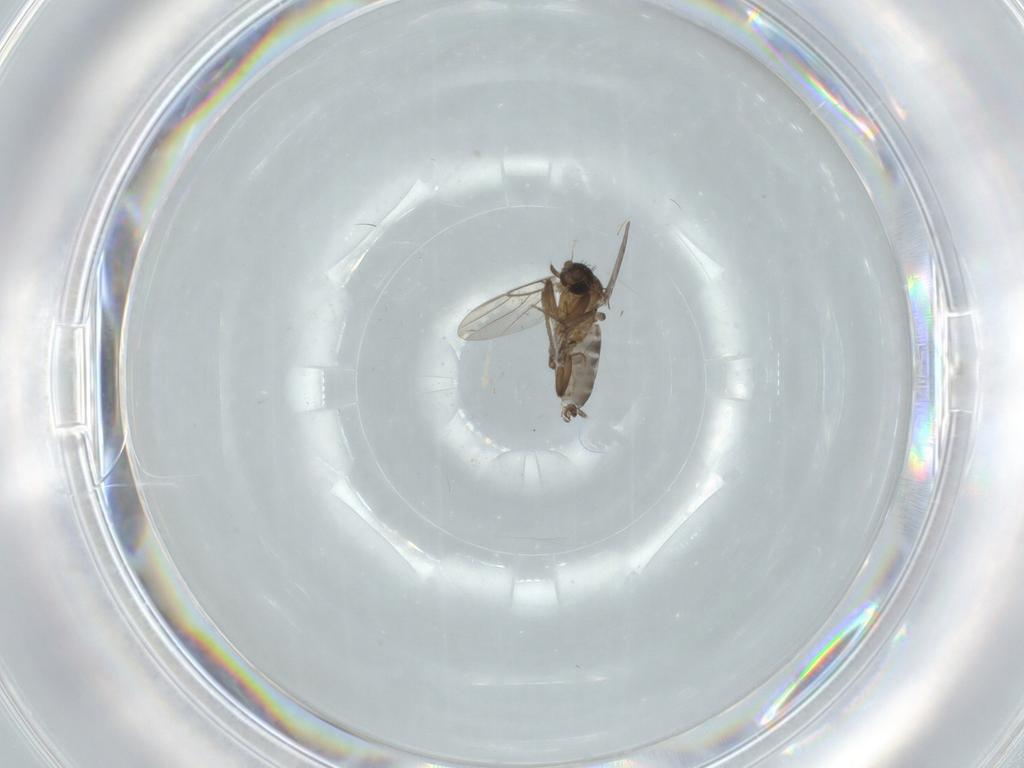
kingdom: Animalia
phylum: Arthropoda
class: Insecta
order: Diptera
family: Phoridae
